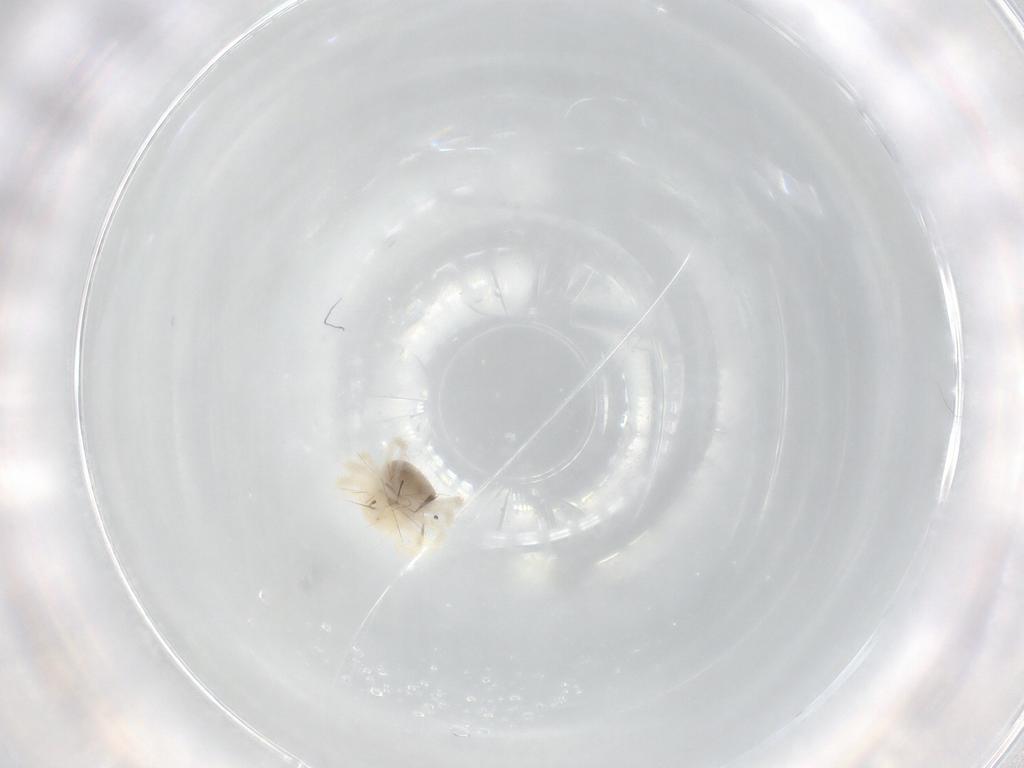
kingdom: Animalia
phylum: Arthropoda
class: Arachnida
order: Trombidiformes
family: Anystidae
